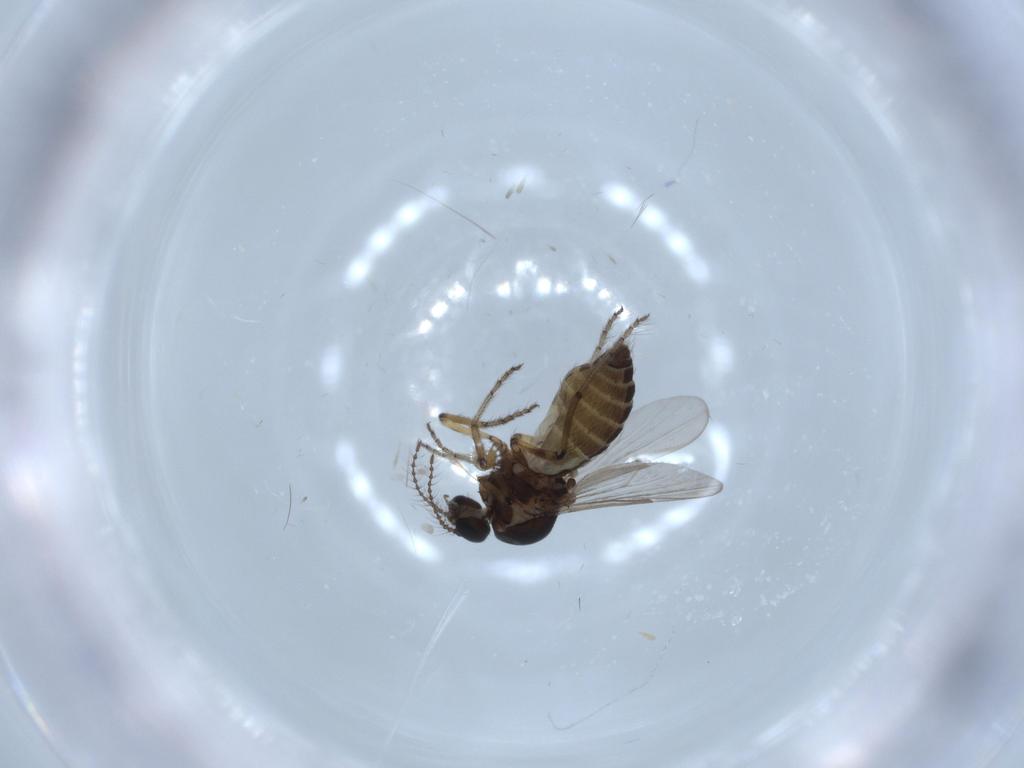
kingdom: Animalia
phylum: Arthropoda
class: Insecta
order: Diptera
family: Ceratopogonidae
